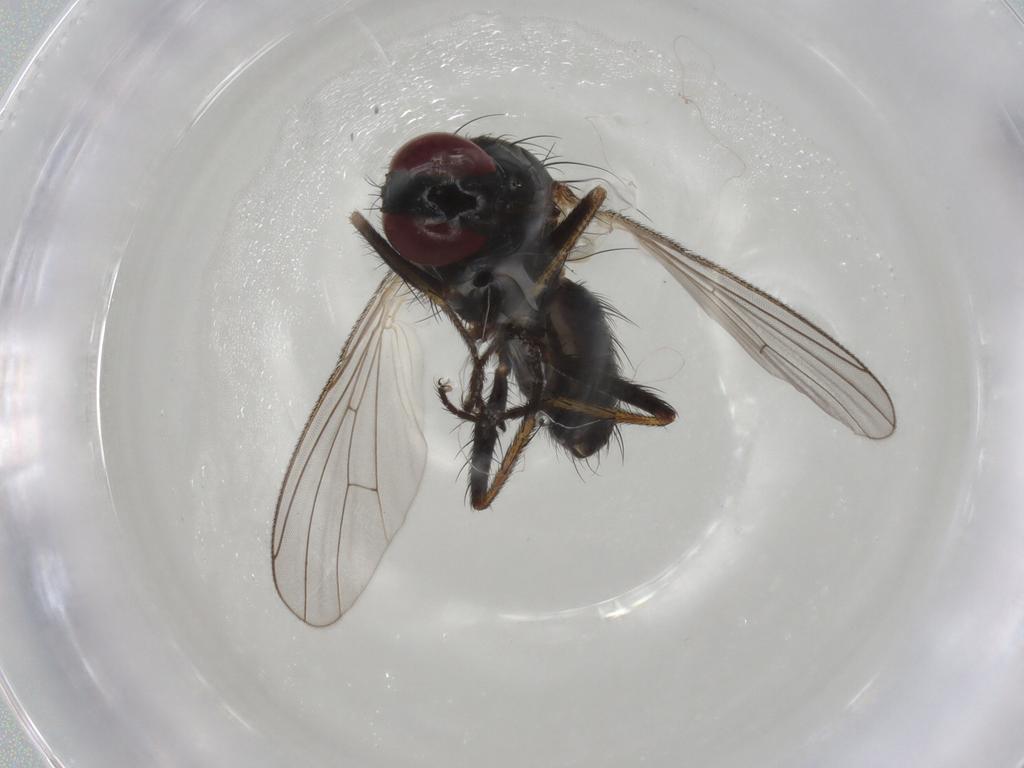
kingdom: Animalia
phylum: Arthropoda
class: Insecta
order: Diptera
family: Muscidae
